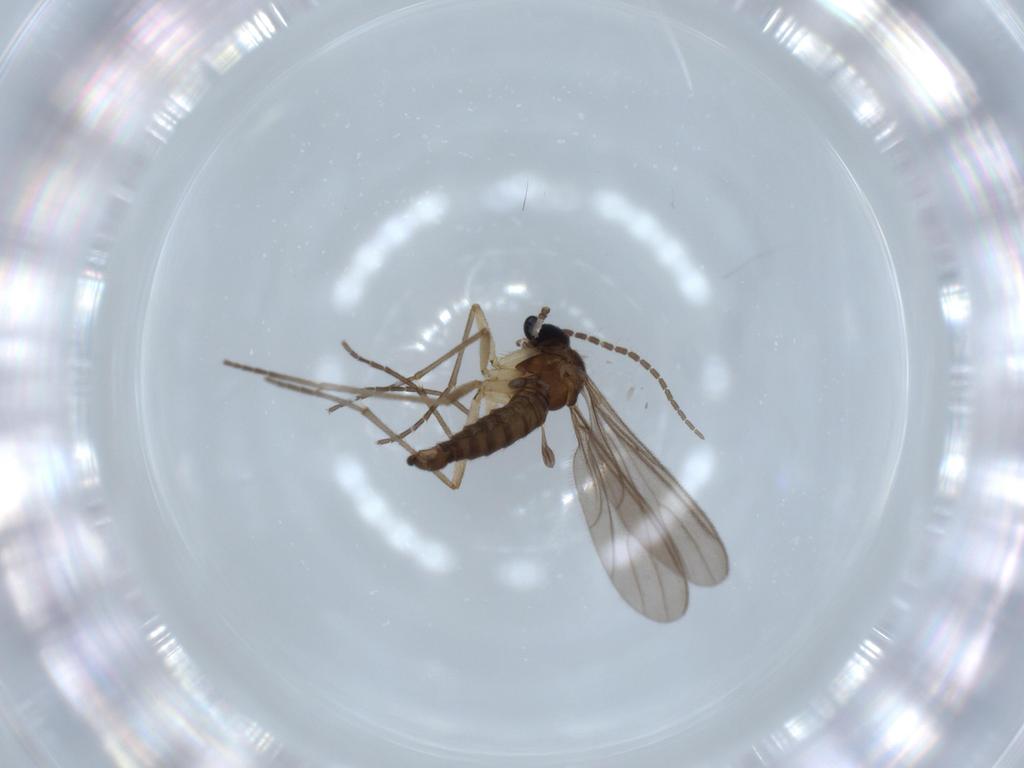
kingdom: Animalia
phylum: Arthropoda
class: Insecta
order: Diptera
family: Sciaridae
